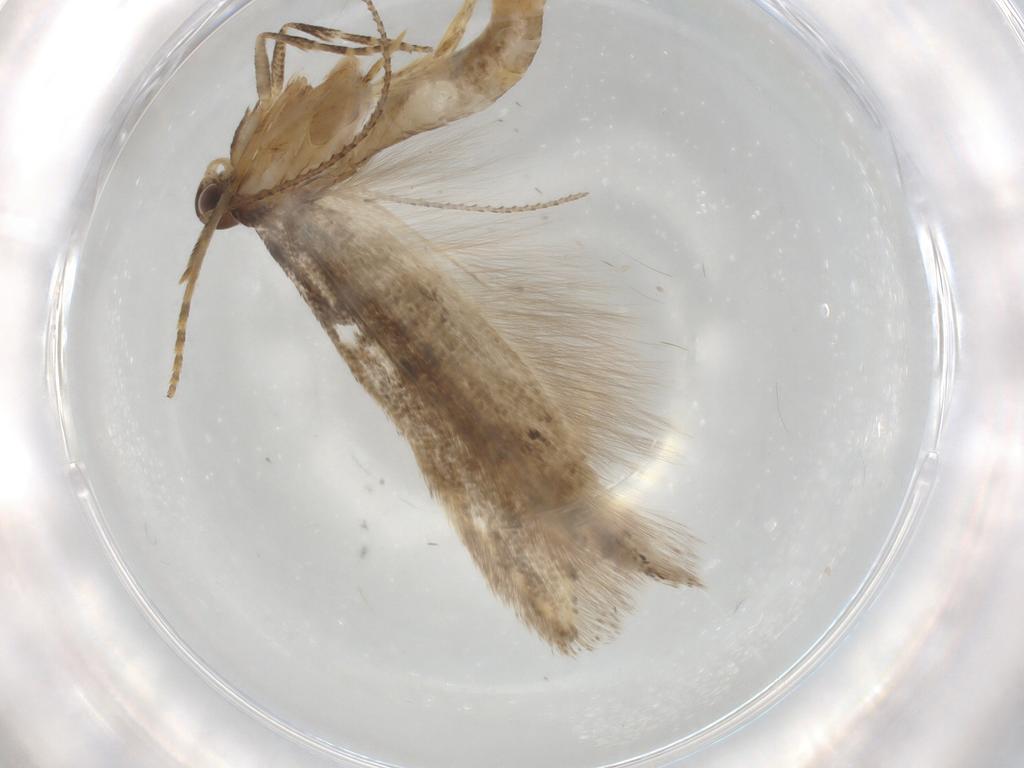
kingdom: Animalia
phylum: Arthropoda
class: Insecta
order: Lepidoptera
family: Gelechiidae
